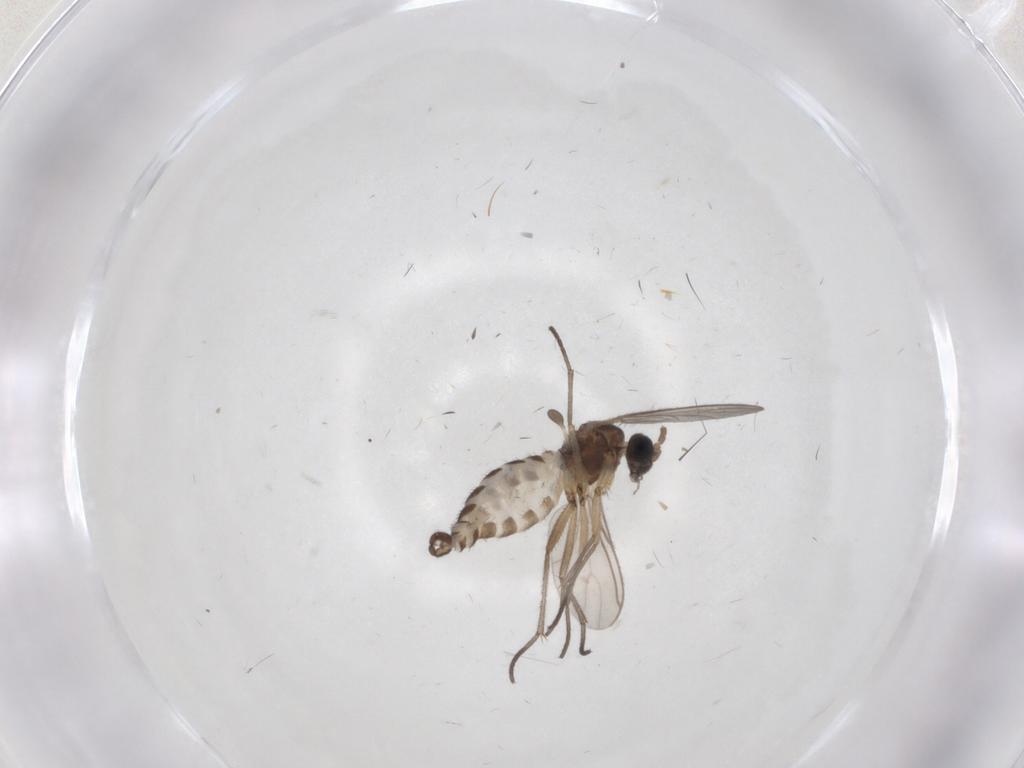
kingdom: Animalia
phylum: Arthropoda
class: Insecta
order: Diptera
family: Sciaridae
